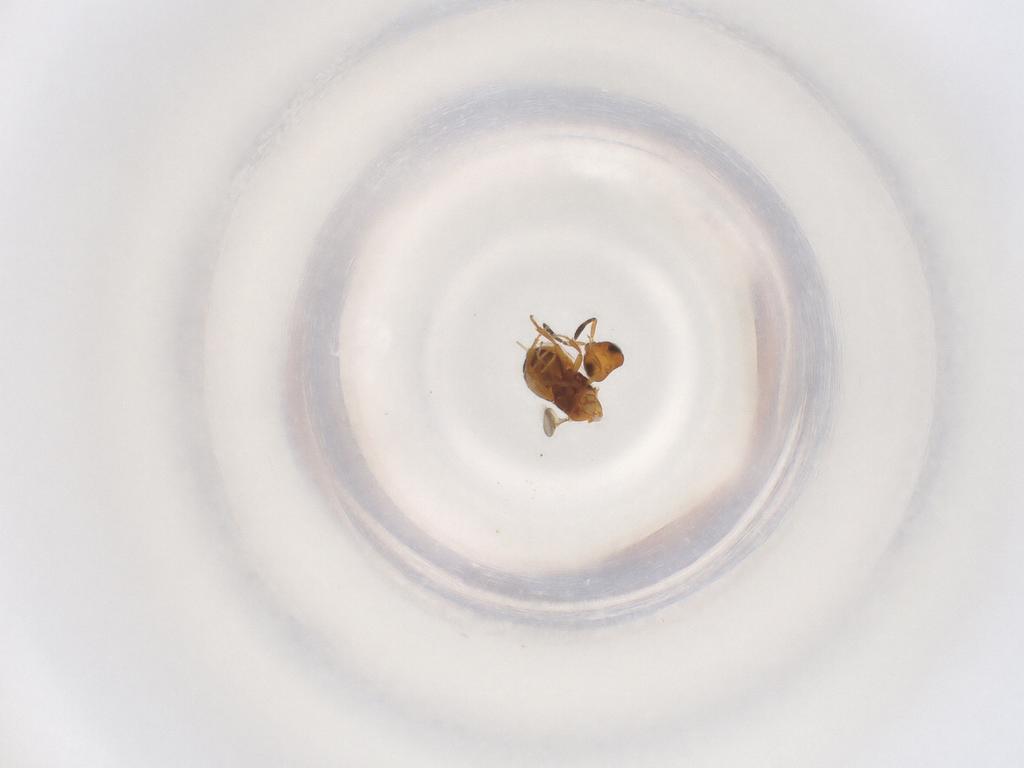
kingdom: Animalia
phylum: Arthropoda
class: Insecta
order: Hymenoptera
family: Scelionidae
